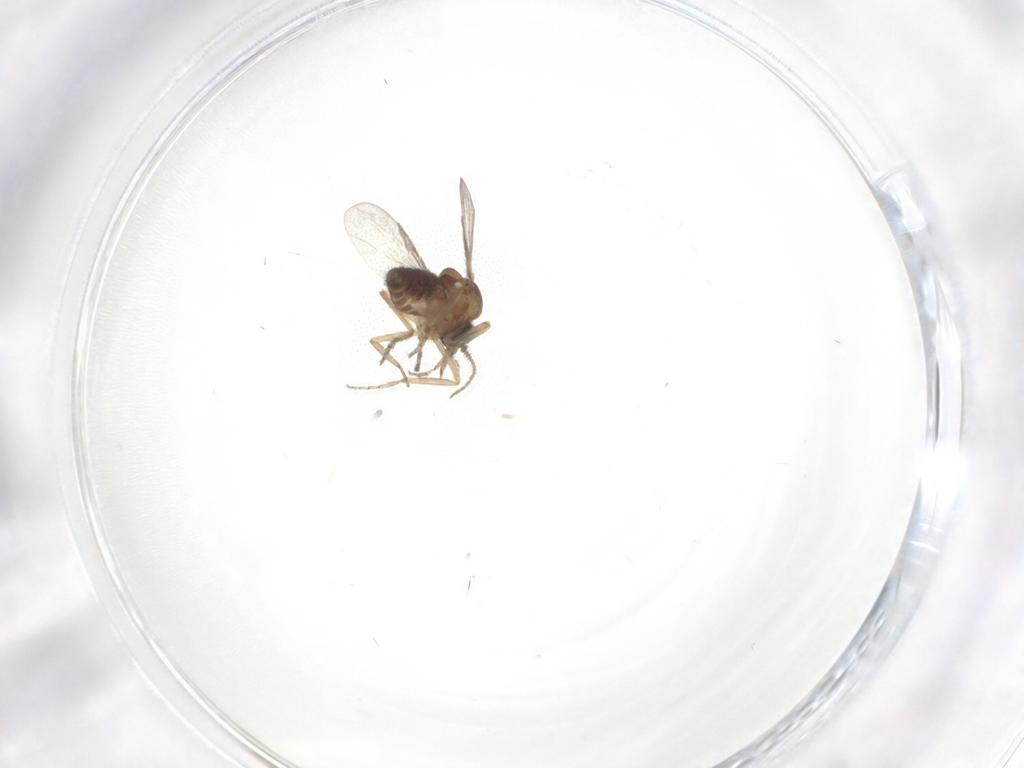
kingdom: Animalia
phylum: Arthropoda
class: Insecta
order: Diptera
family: Ceratopogonidae
